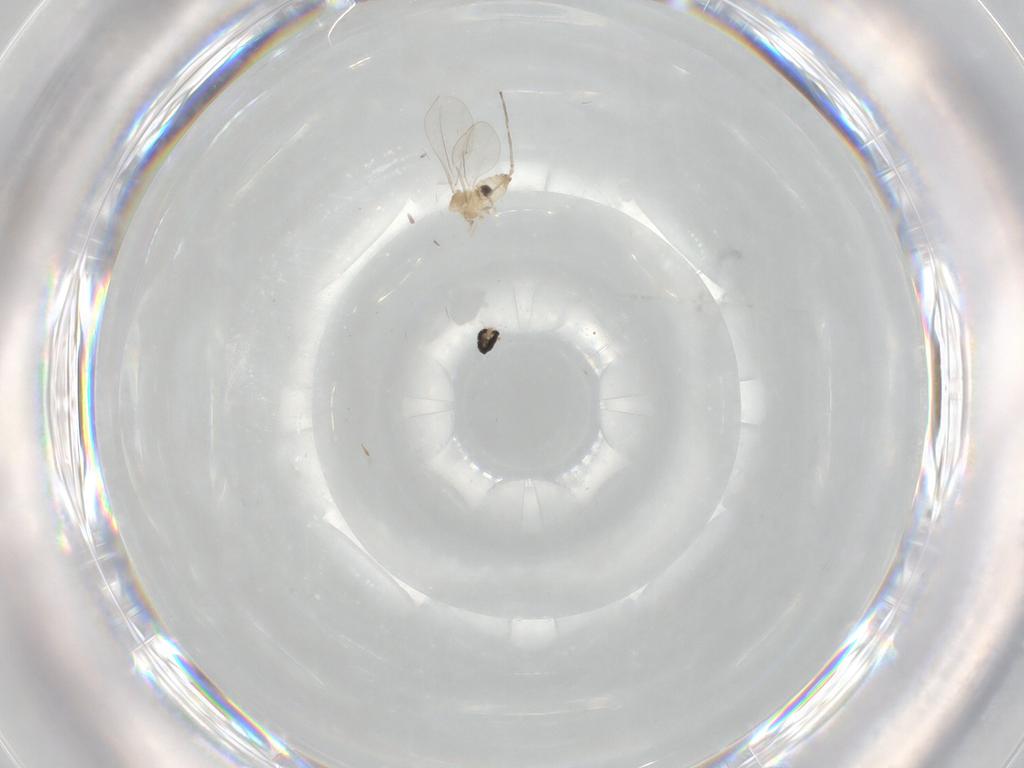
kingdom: Animalia
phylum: Arthropoda
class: Insecta
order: Diptera
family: Cecidomyiidae
